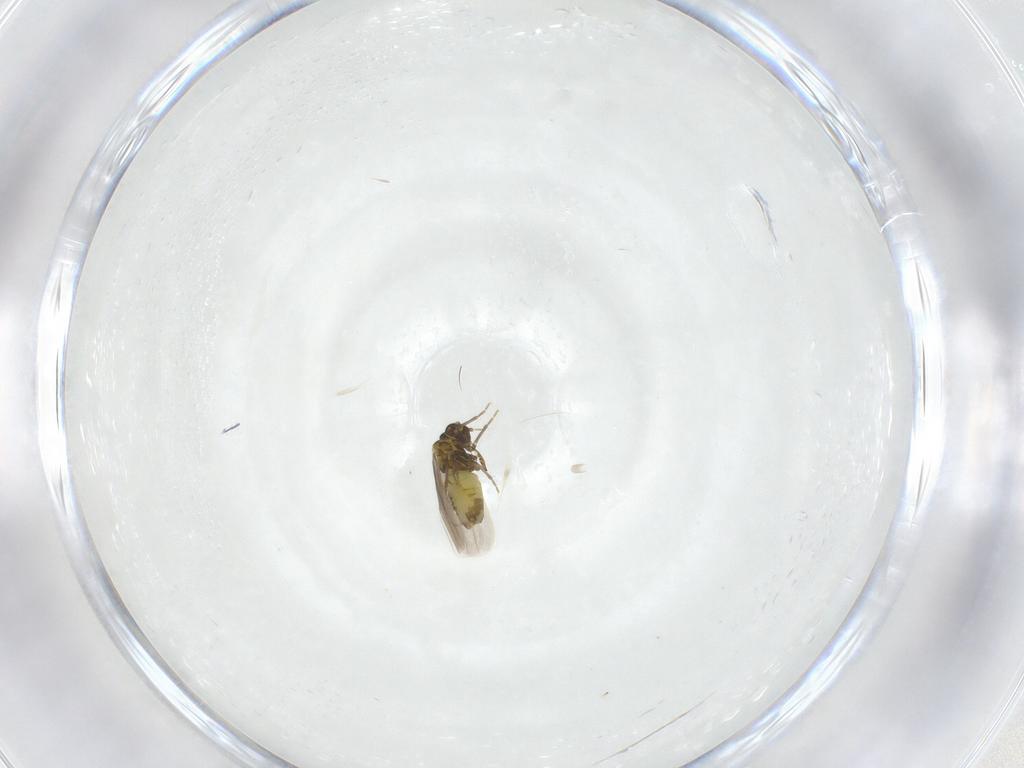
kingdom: Animalia
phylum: Arthropoda
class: Insecta
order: Hemiptera
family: Aleyrodidae
